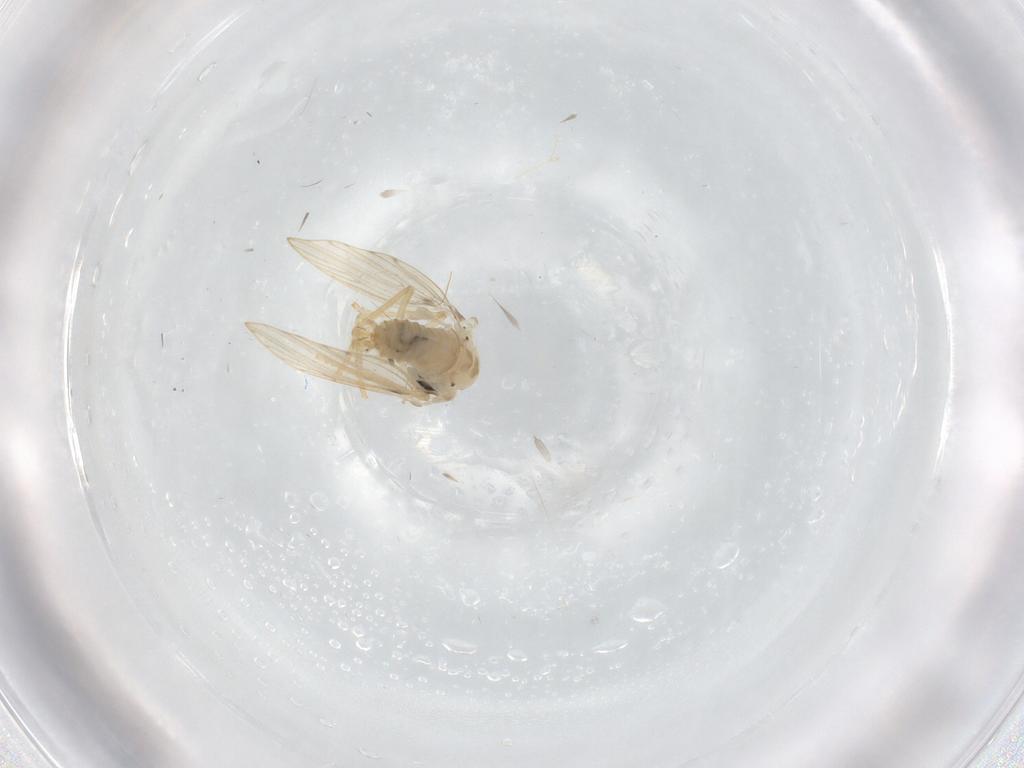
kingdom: Animalia
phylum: Arthropoda
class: Insecta
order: Diptera
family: Psychodidae
